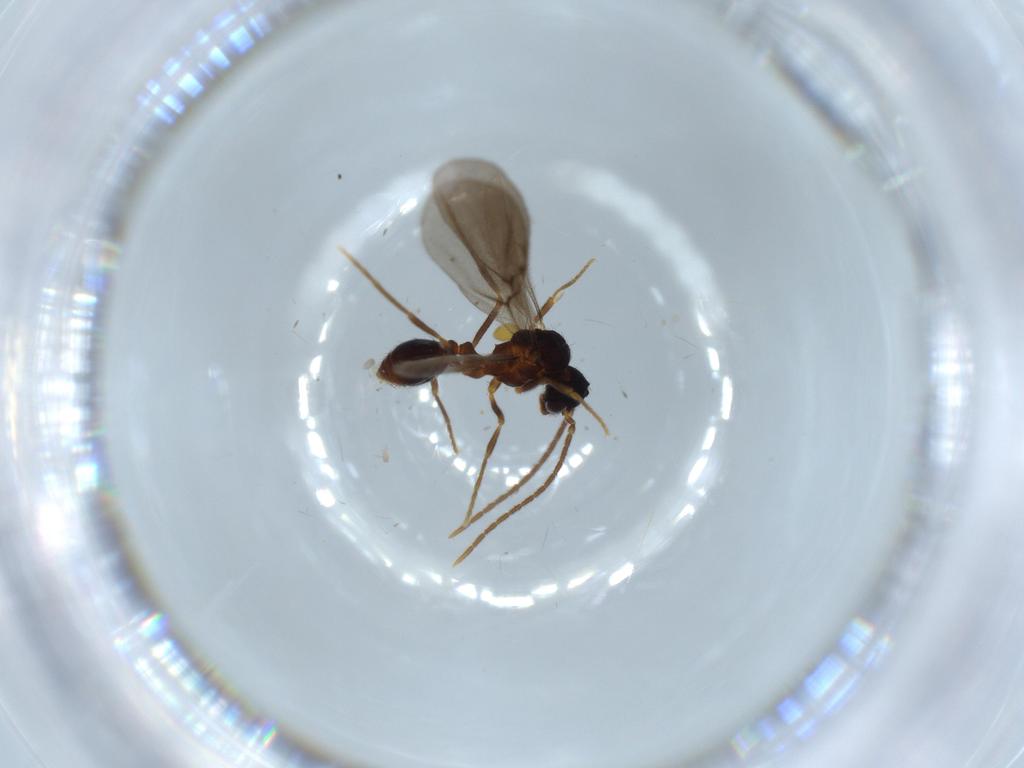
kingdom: Animalia
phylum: Arthropoda
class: Insecta
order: Hymenoptera
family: Formicidae
